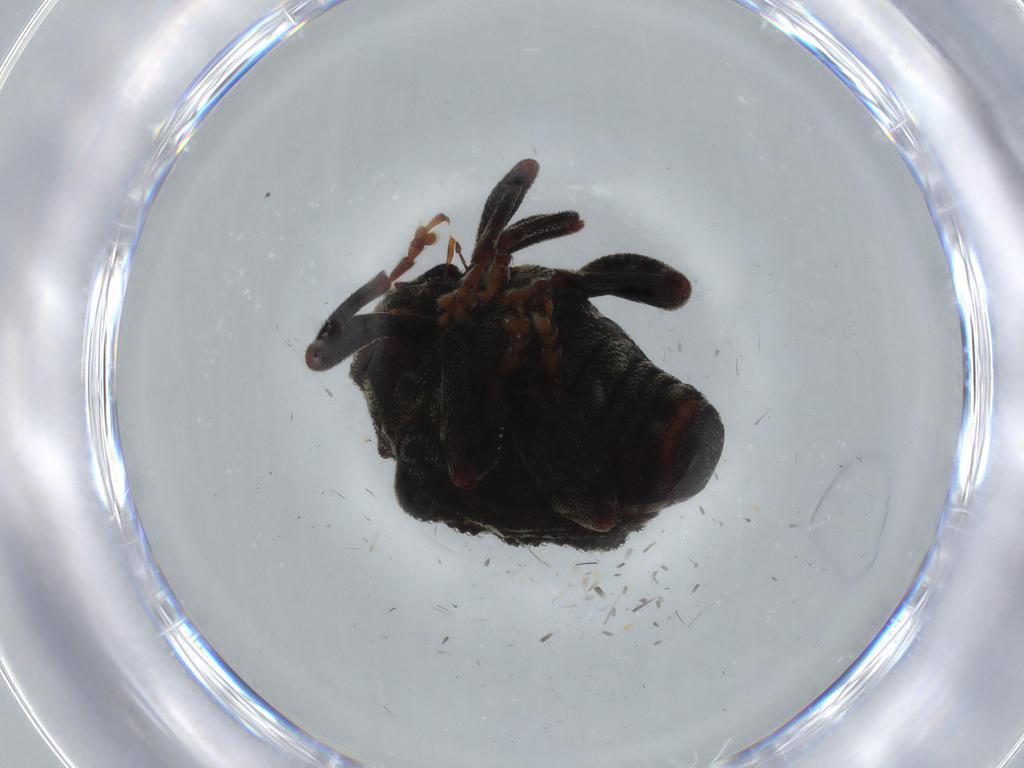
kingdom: Animalia
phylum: Arthropoda
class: Insecta
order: Coleoptera
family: Curculionidae
